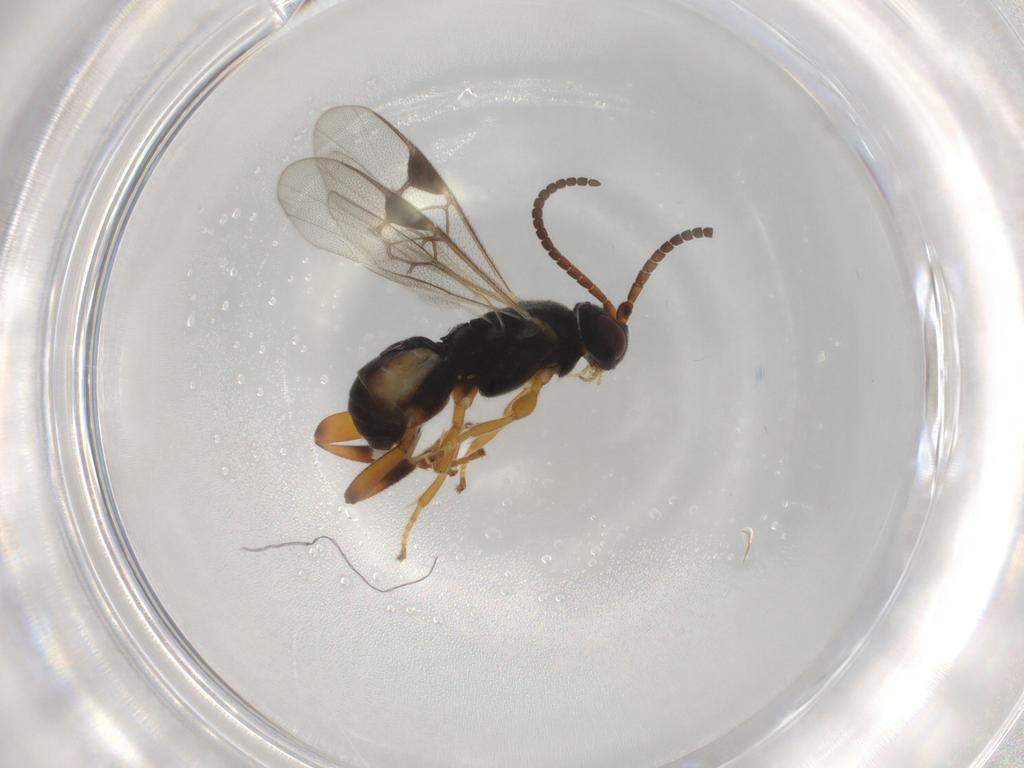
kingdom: Animalia
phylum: Arthropoda
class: Insecta
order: Hymenoptera
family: Braconidae
